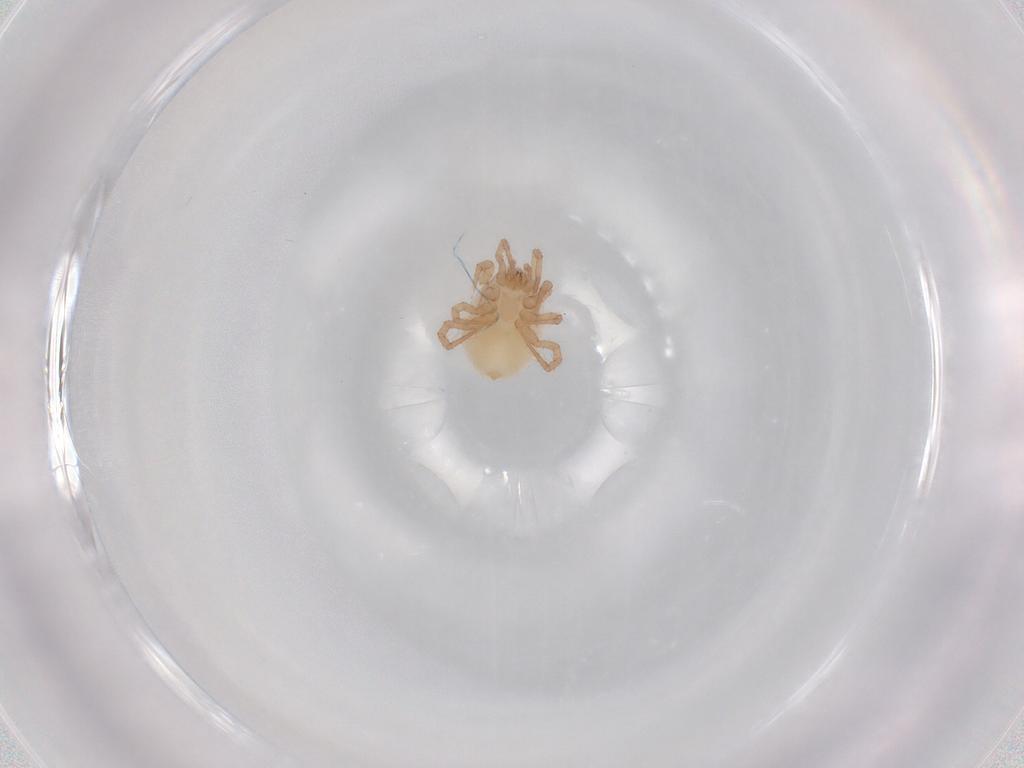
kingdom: Animalia
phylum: Arthropoda
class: Arachnida
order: Mesostigmata
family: Parasitidae
